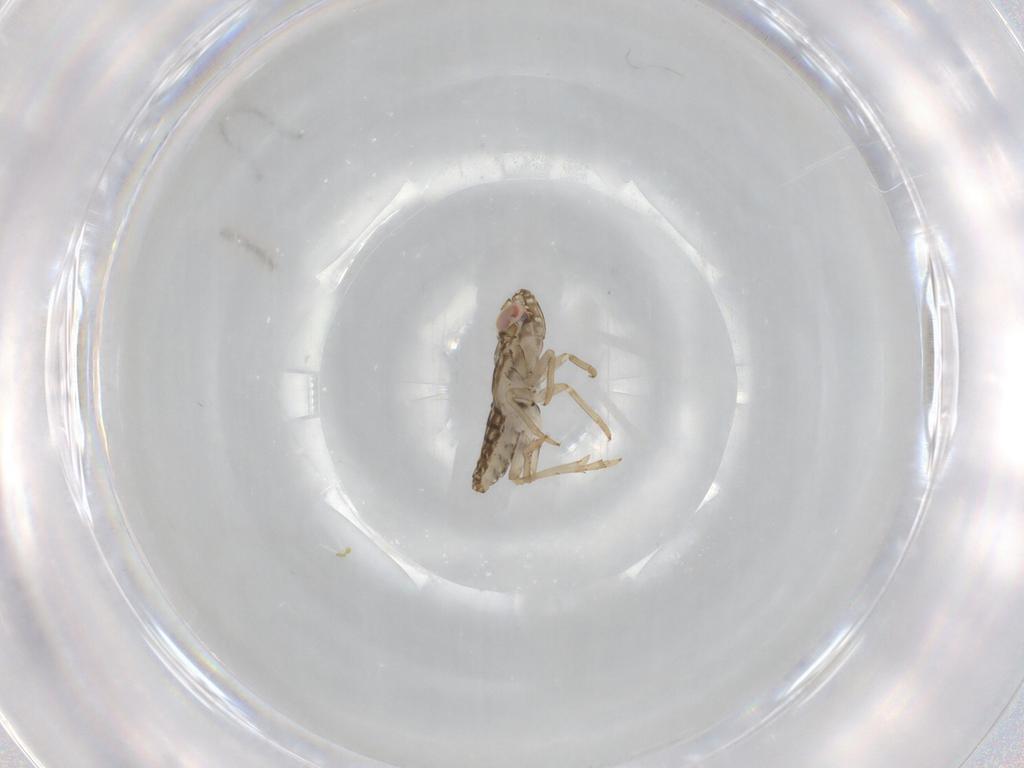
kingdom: Animalia
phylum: Arthropoda
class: Insecta
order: Hemiptera
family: Delphacidae
